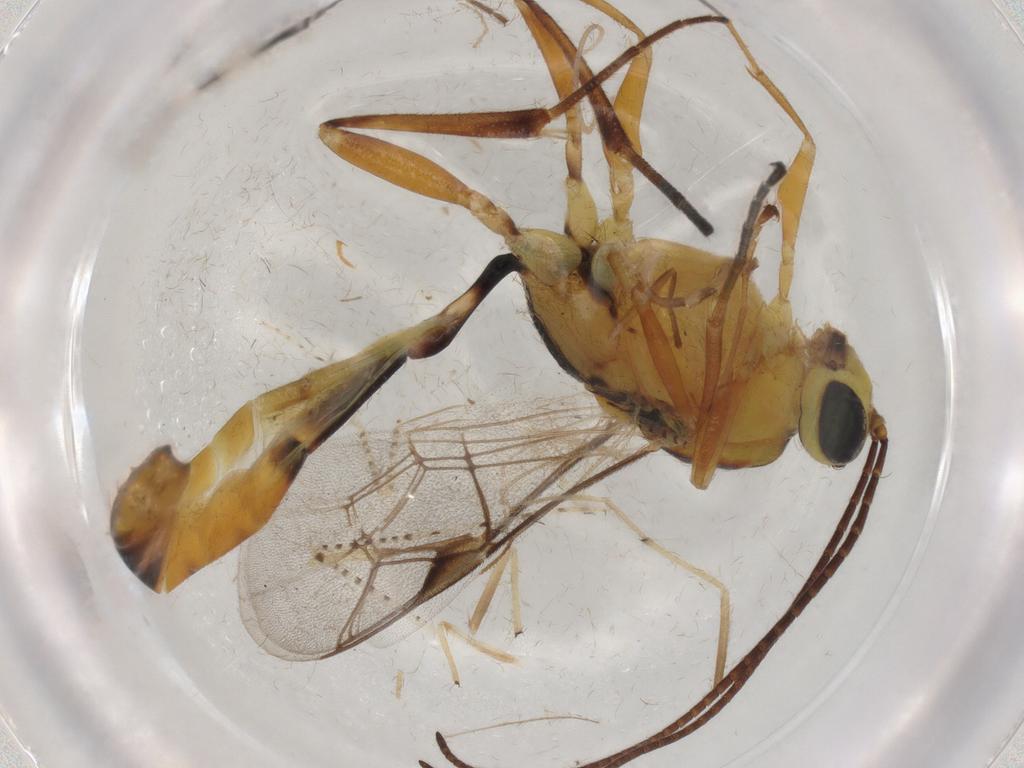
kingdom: Animalia
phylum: Arthropoda
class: Insecta
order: Hymenoptera
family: Ichneumonidae
